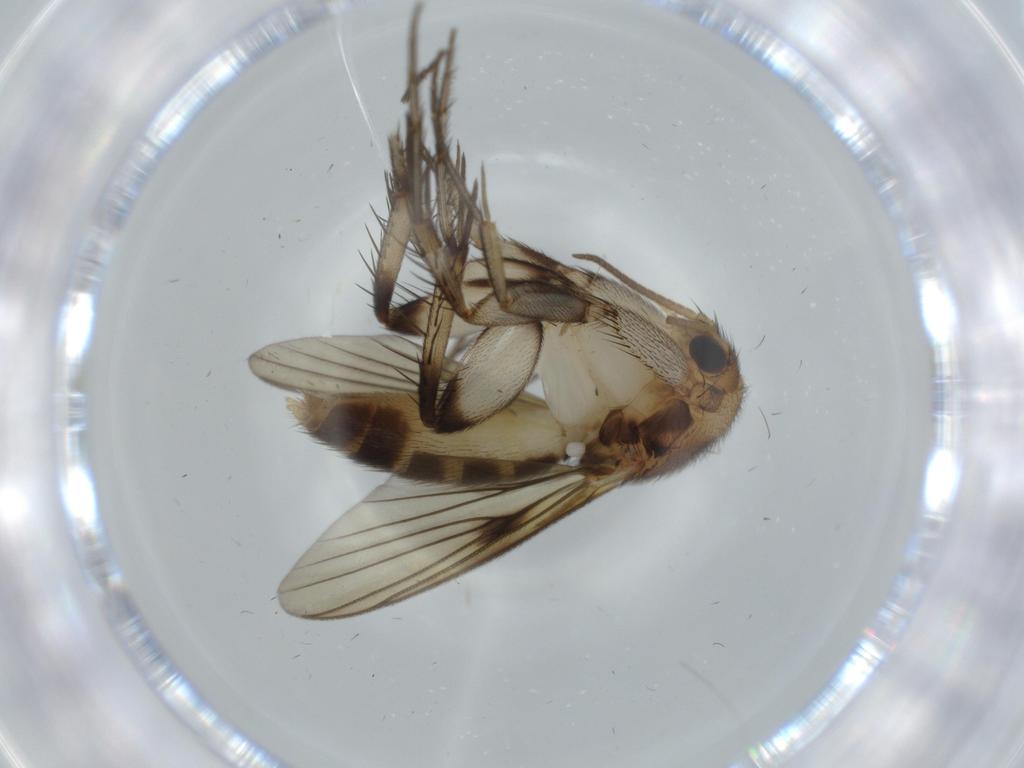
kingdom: Animalia
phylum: Arthropoda
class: Insecta
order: Diptera
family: Mycetophilidae
